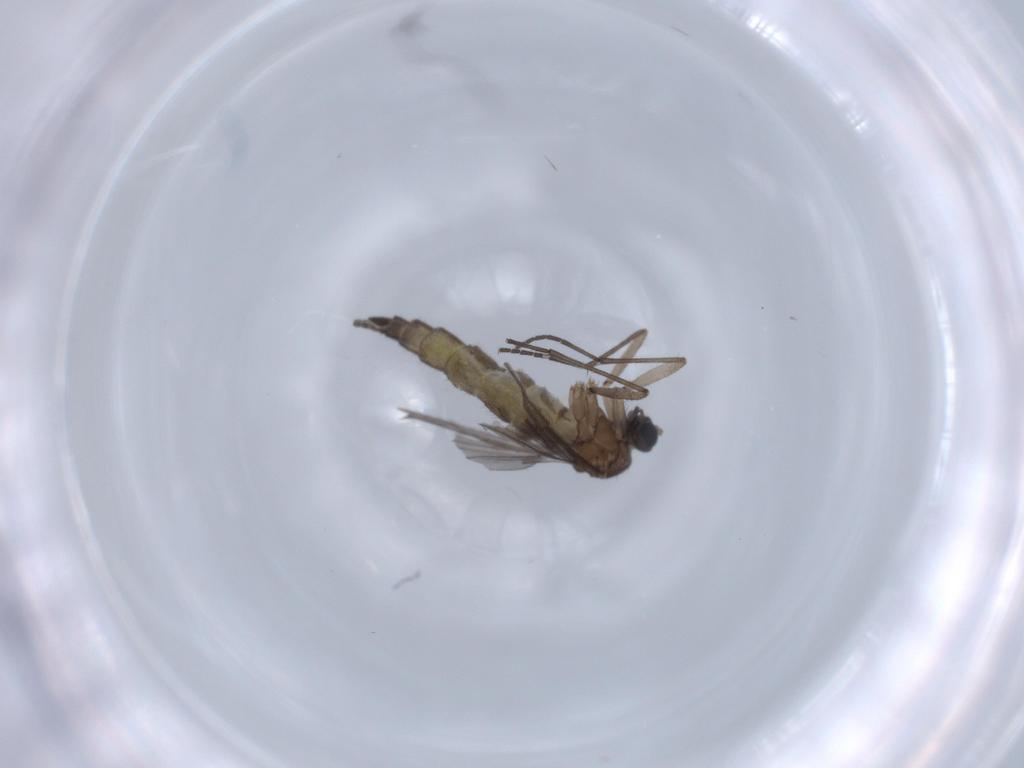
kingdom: Animalia
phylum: Arthropoda
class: Insecta
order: Diptera
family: Sciaridae
